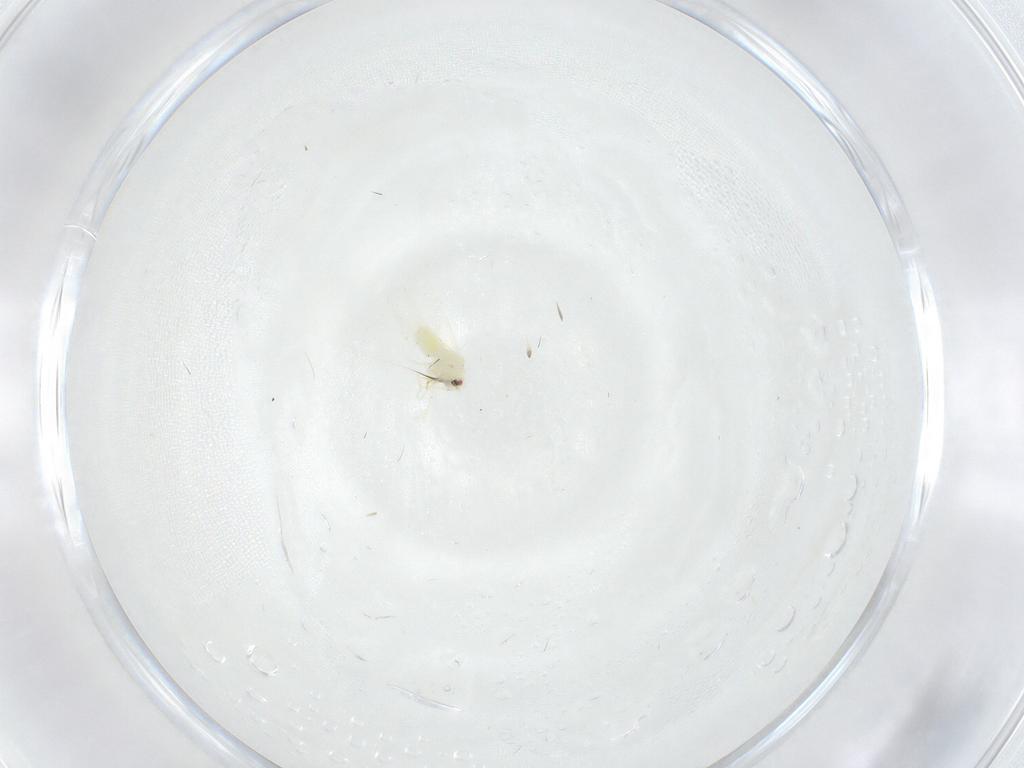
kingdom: Animalia
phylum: Arthropoda
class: Insecta
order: Hemiptera
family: Aleyrodidae
